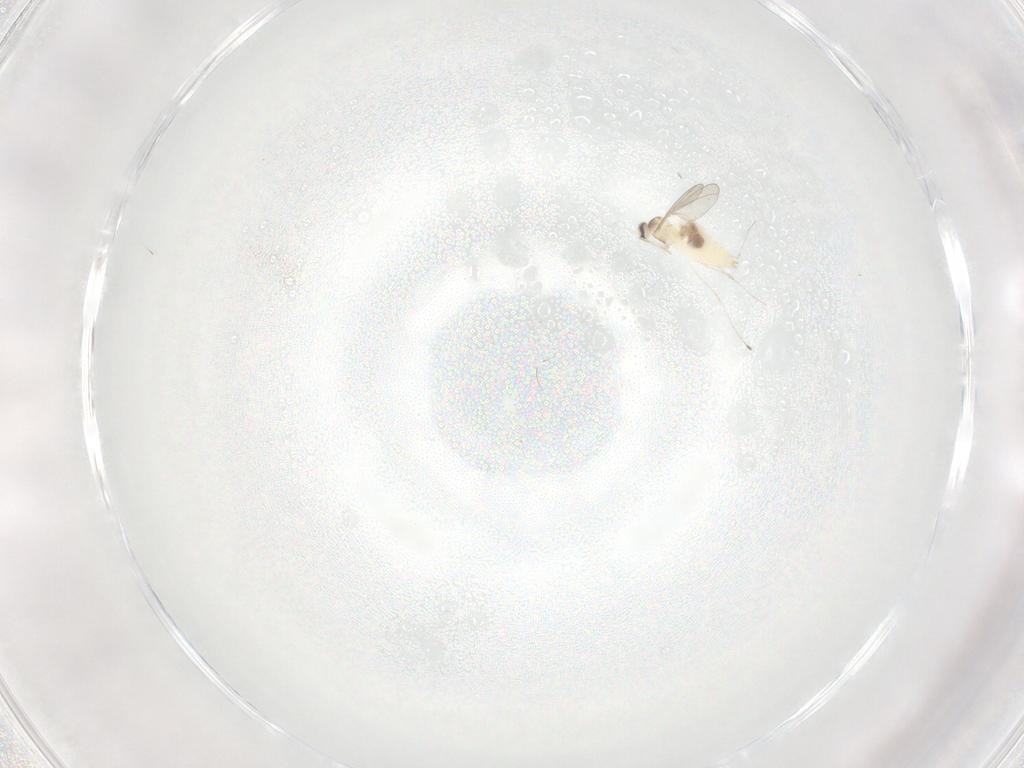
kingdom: Animalia
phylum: Arthropoda
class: Insecta
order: Diptera
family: Cecidomyiidae
